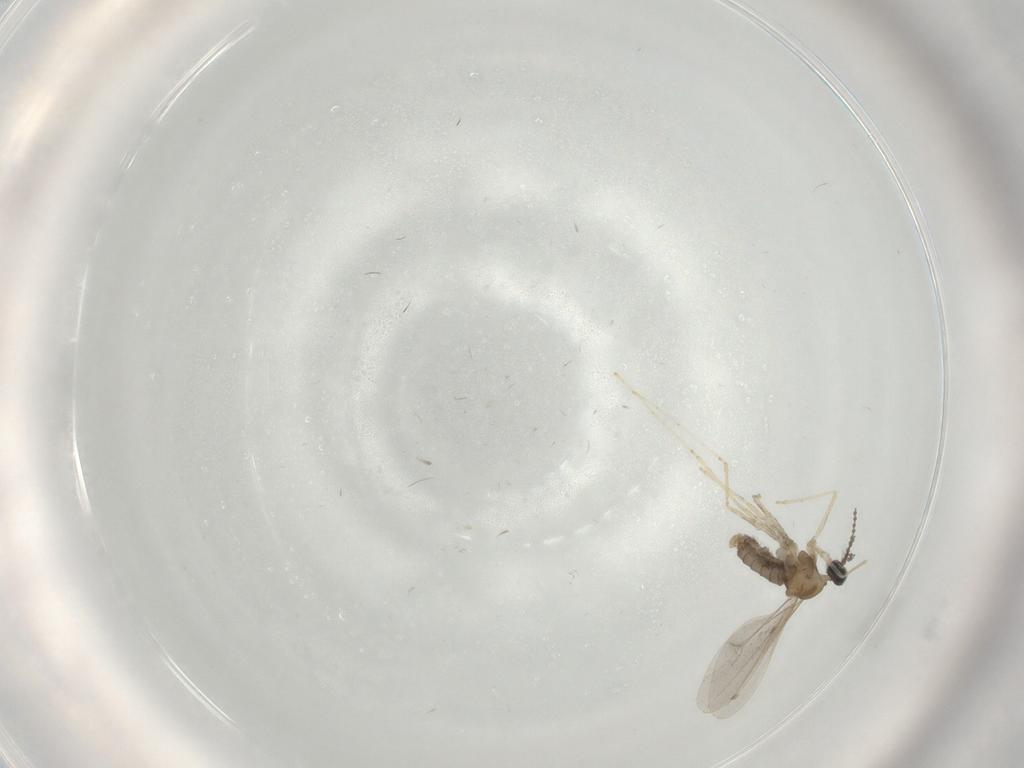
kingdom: Animalia
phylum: Arthropoda
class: Insecta
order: Diptera
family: Cecidomyiidae
